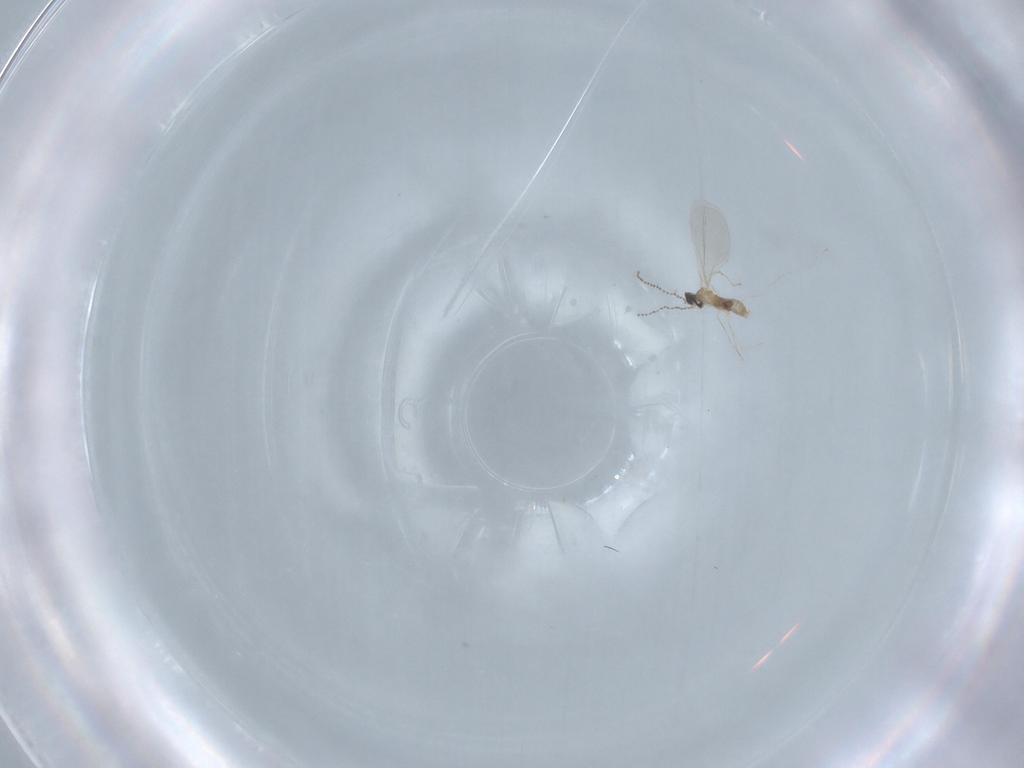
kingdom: Animalia
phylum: Arthropoda
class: Insecta
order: Diptera
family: Cecidomyiidae
